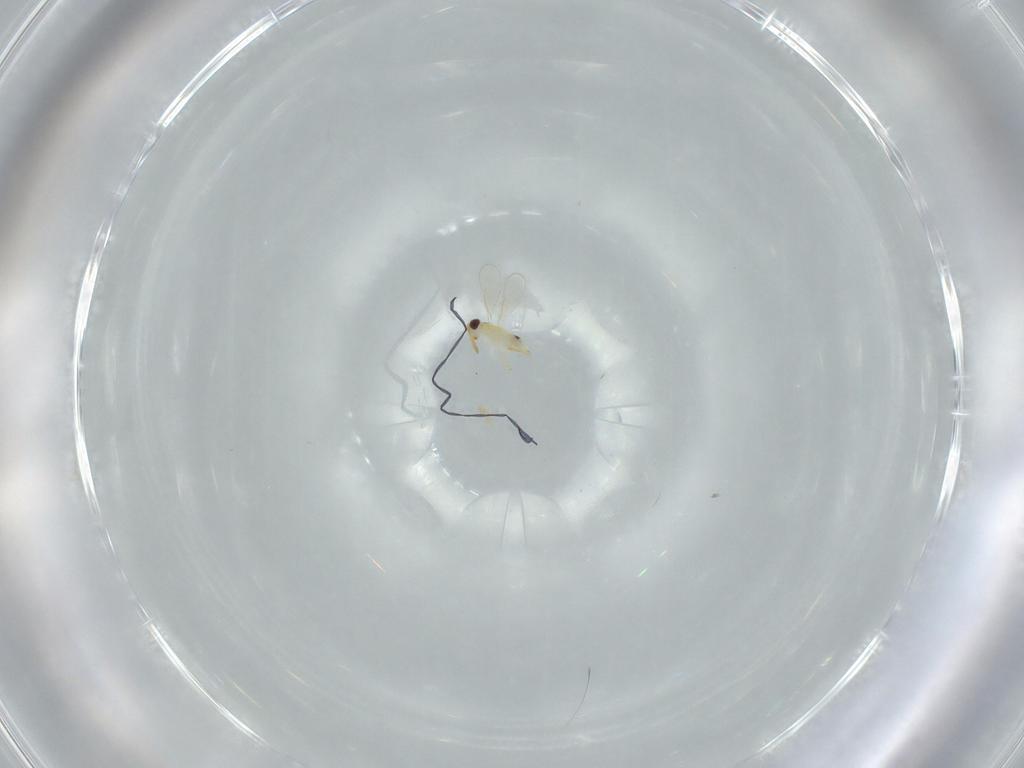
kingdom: Animalia
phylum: Arthropoda
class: Insecta
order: Hymenoptera
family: Aphelinidae
